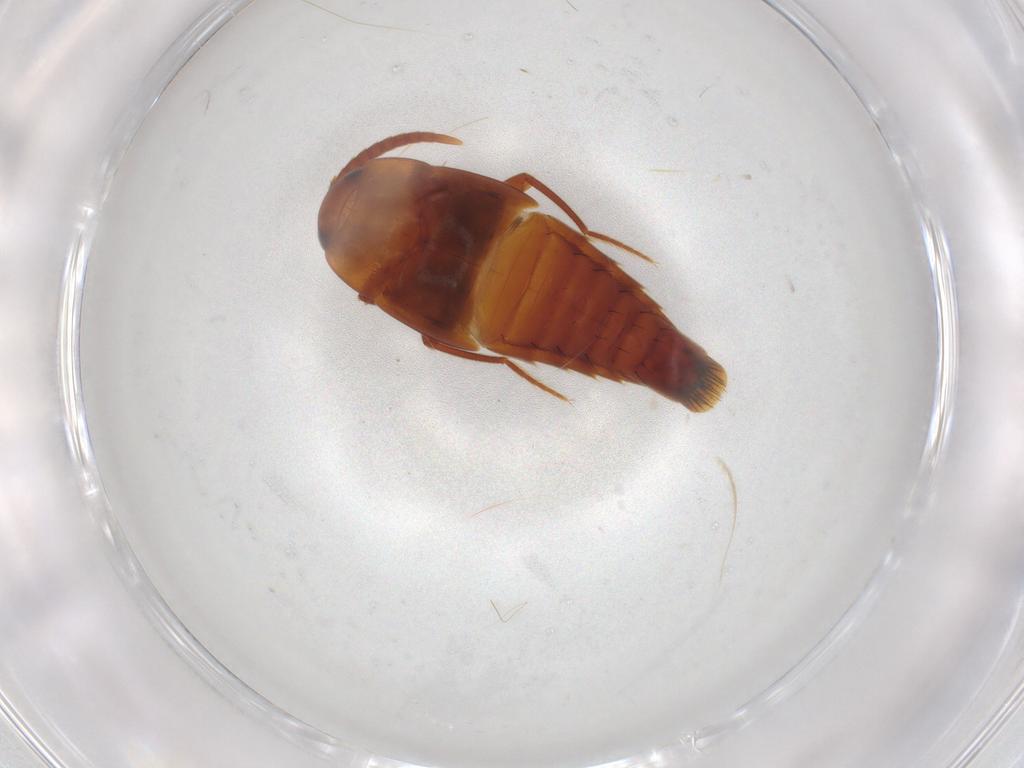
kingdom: Animalia
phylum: Arthropoda
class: Insecta
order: Coleoptera
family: Staphylinidae
